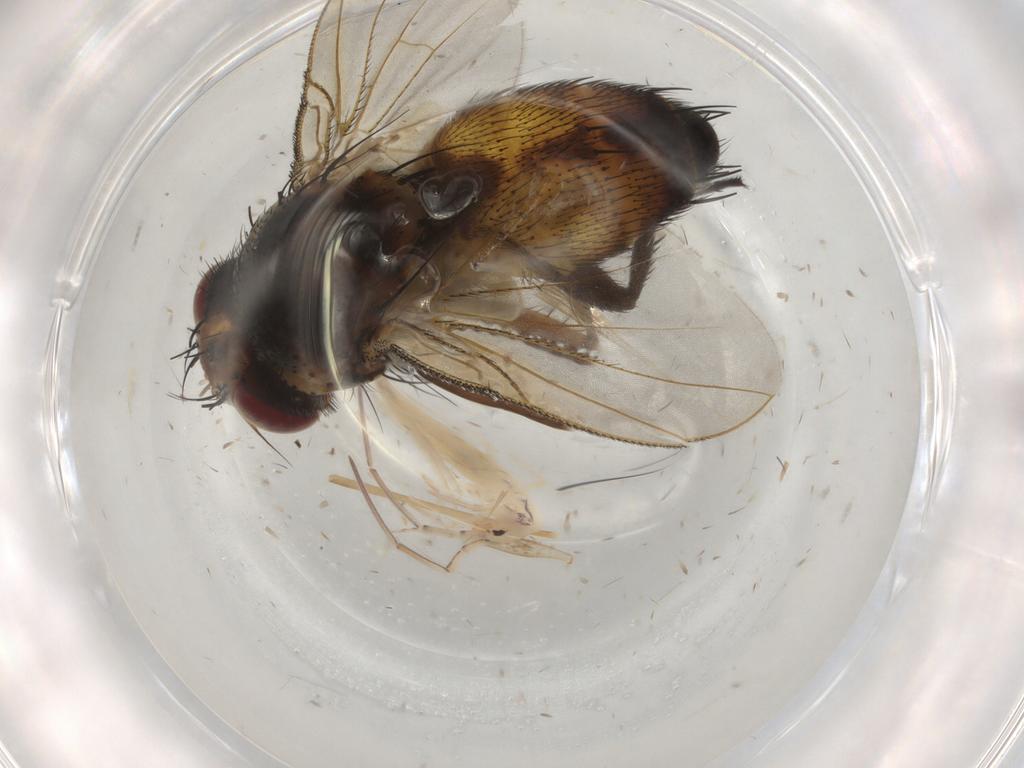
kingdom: Animalia
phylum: Arthropoda
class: Insecta
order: Diptera
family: Cecidomyiidae
